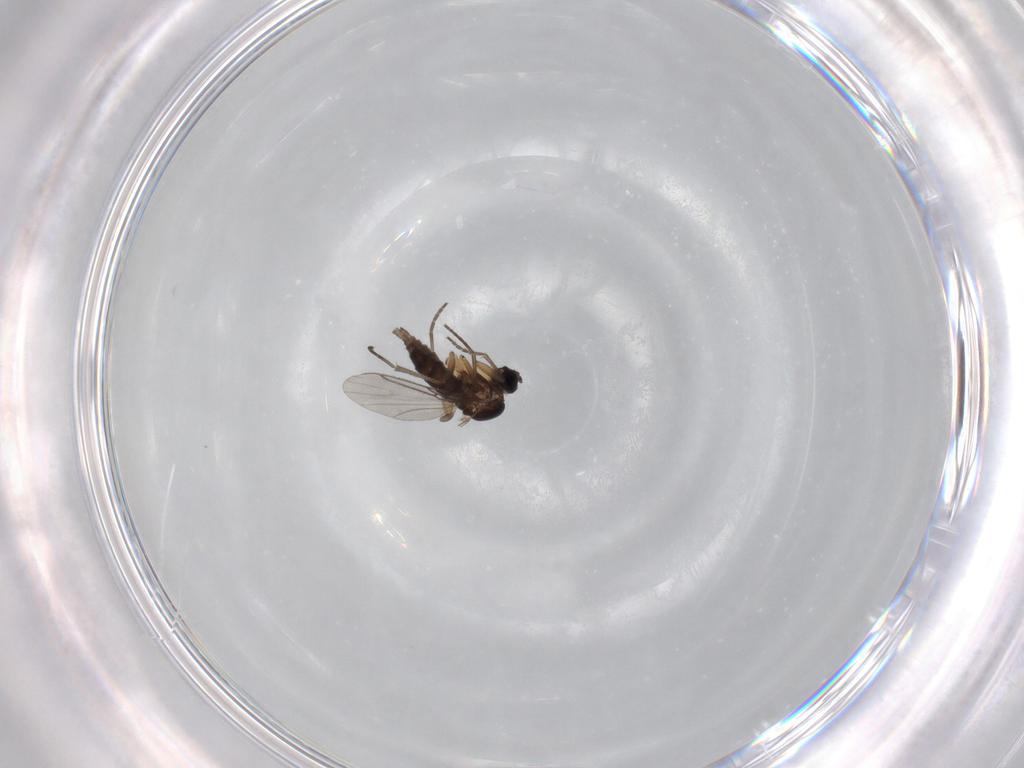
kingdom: Animalia
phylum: Arthropoda
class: Insecta
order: Diptera
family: Sciaridae
